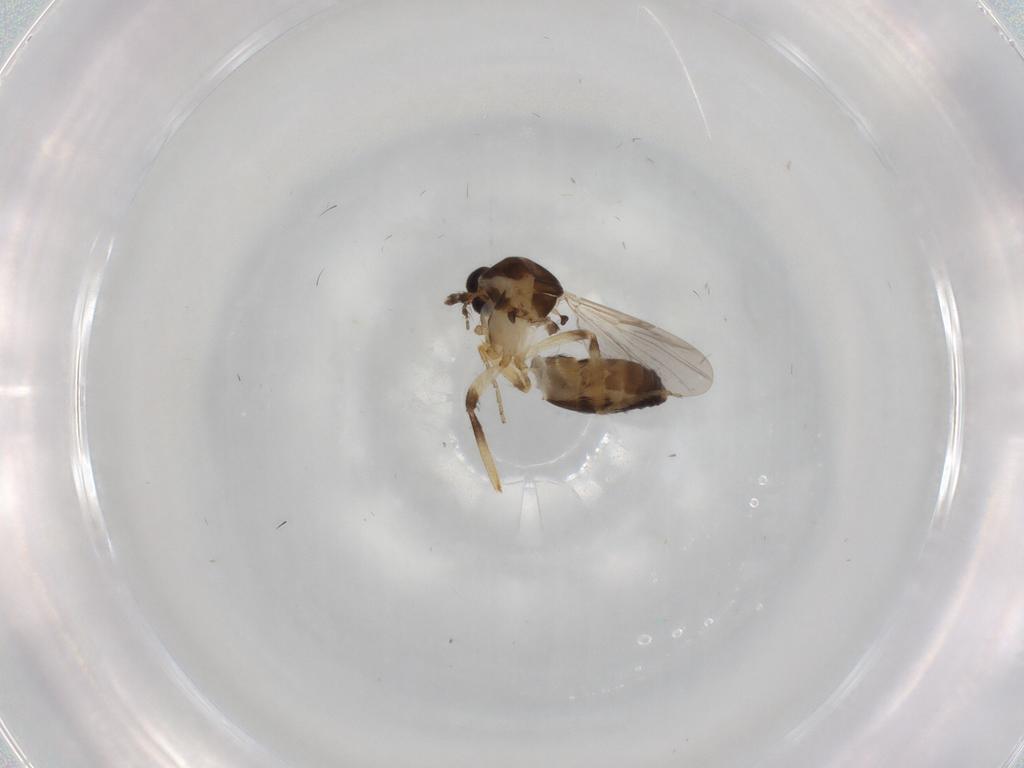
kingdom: Animalia
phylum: Arthropoda
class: Insecta
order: Diptera
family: Ceratopogonidae
